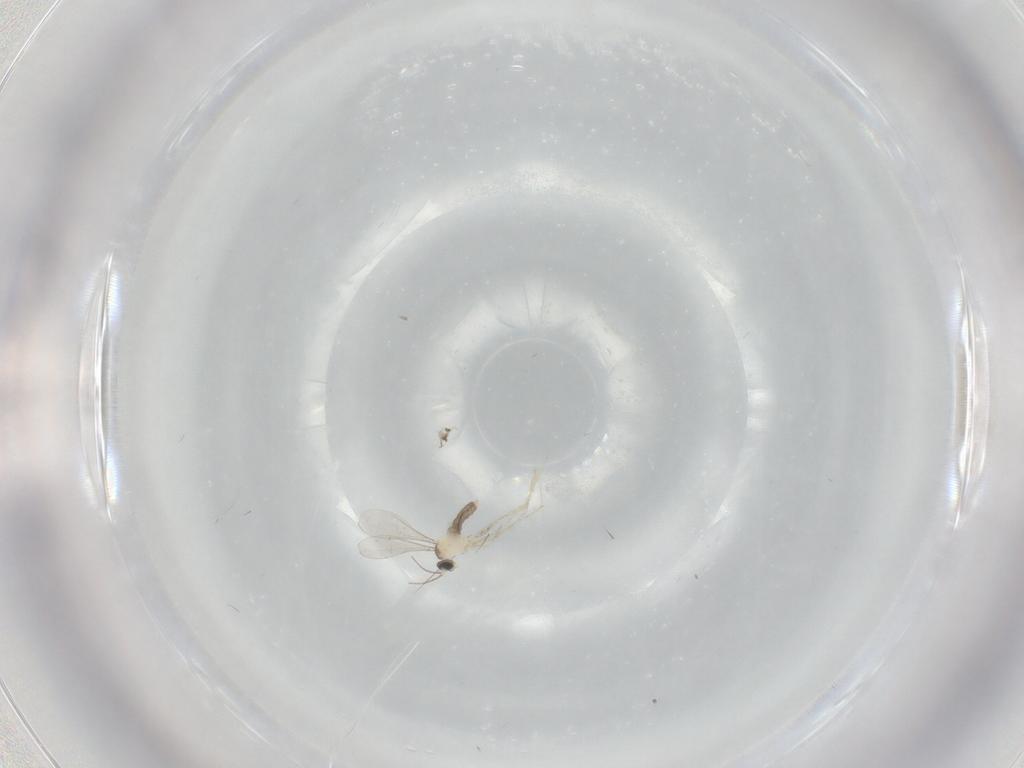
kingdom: Animalia
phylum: Arthropoda
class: Insecta
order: Diptera
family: Cecidomyiidae
